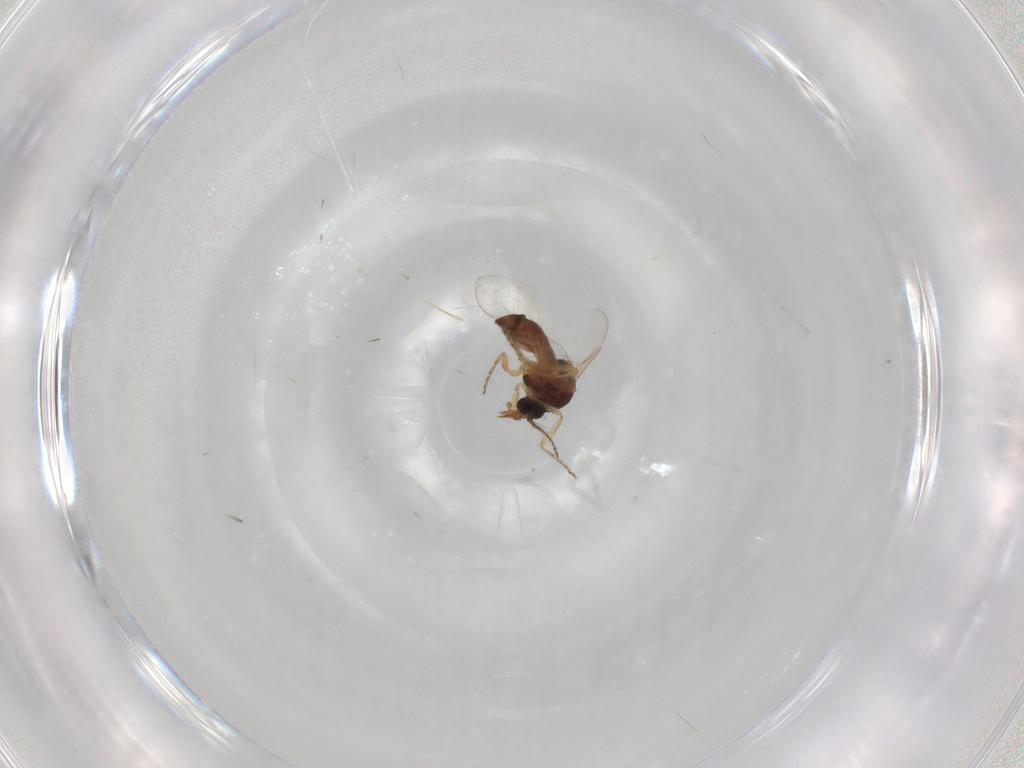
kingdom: Animalia
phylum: Arthropoda
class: Insecta
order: Diptera
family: Ceratopogonidae
